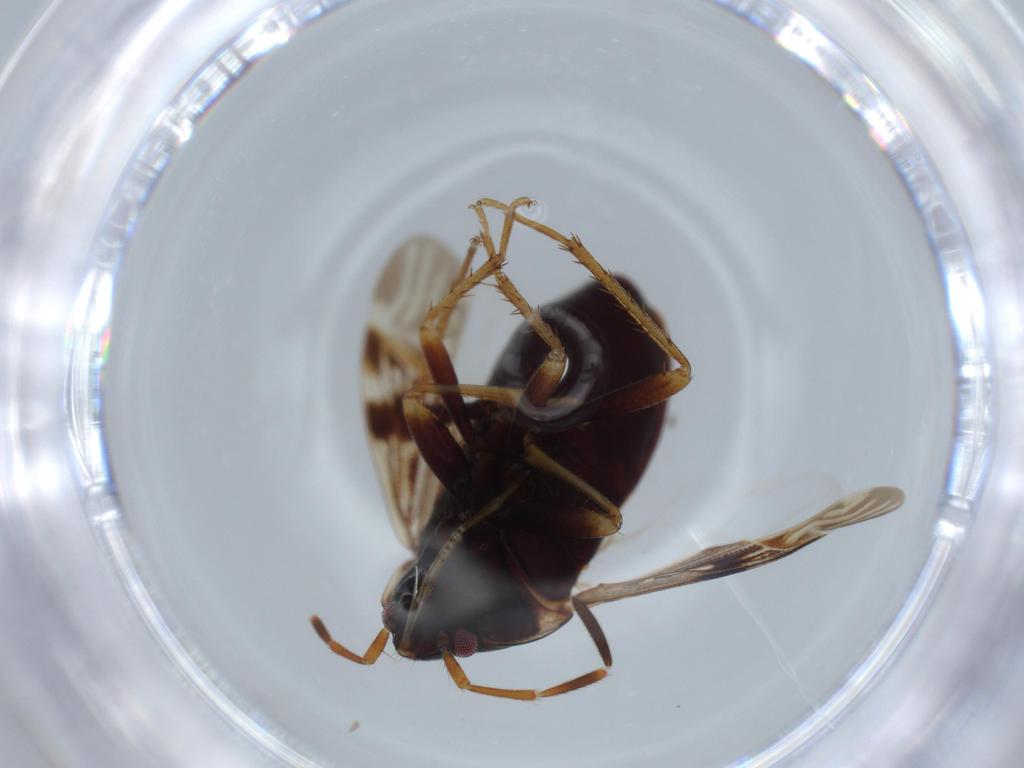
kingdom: Animalia
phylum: Arthropoda
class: Insecta
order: Hemiptera
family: Rhyparochromidae
